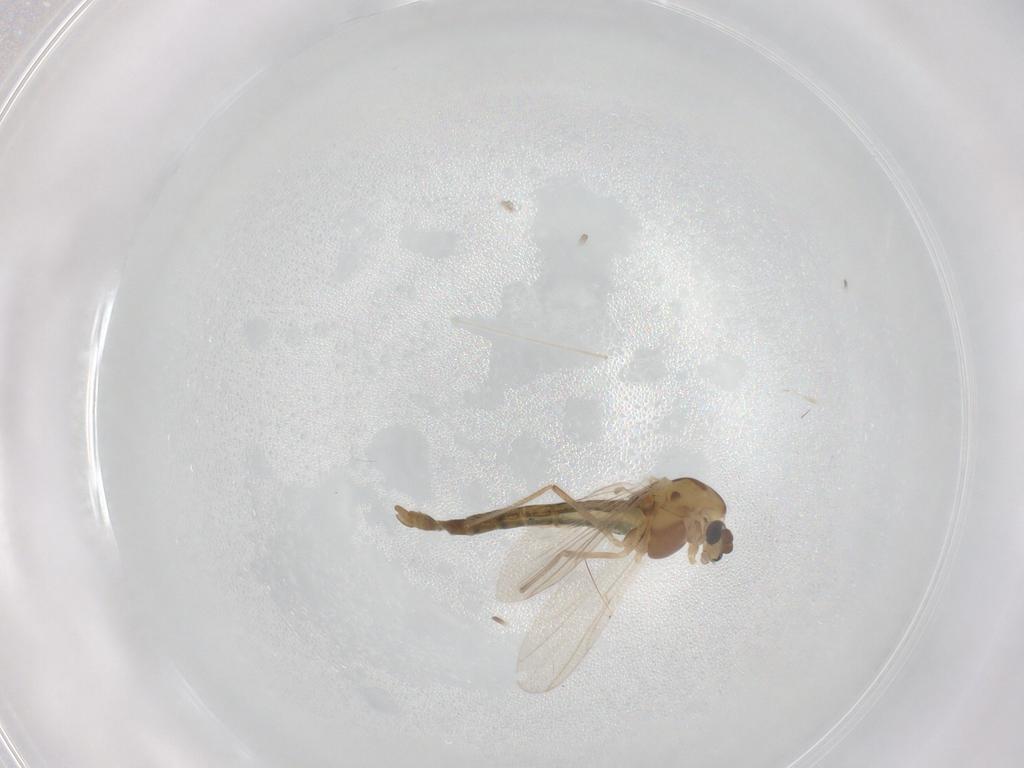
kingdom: Animalia
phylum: Arthropoda
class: Insecta
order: Diptera
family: Chironomidae
